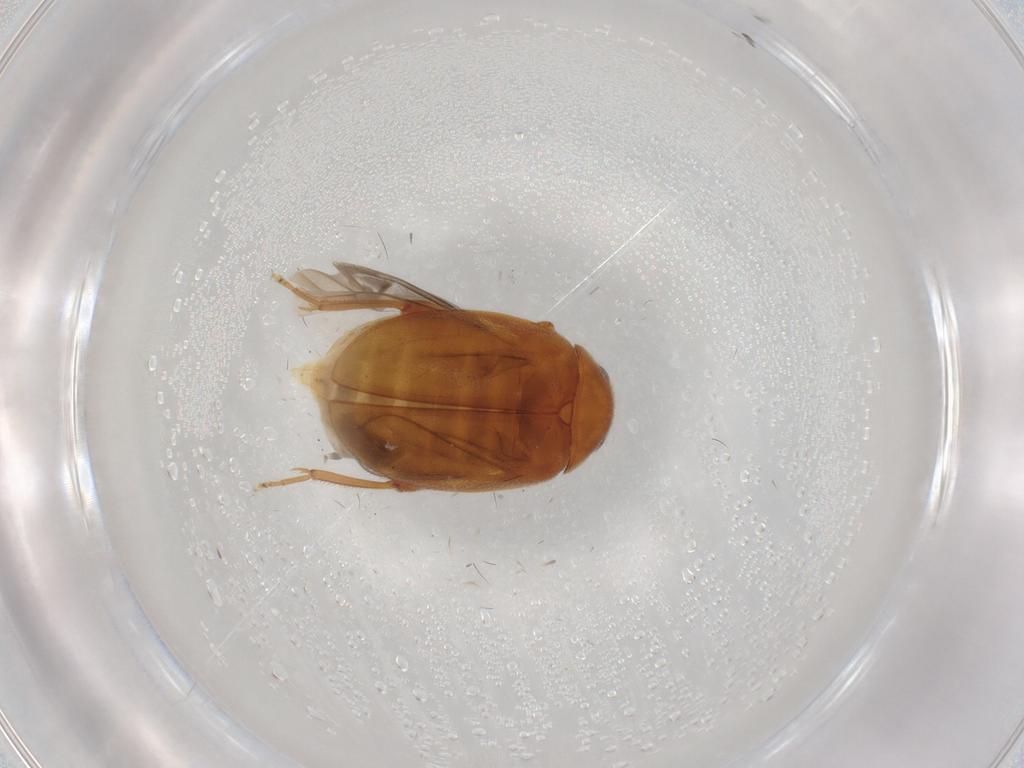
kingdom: Animalia
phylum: Arthropoda
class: Insecta
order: Coleoptera
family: Scirtidae
